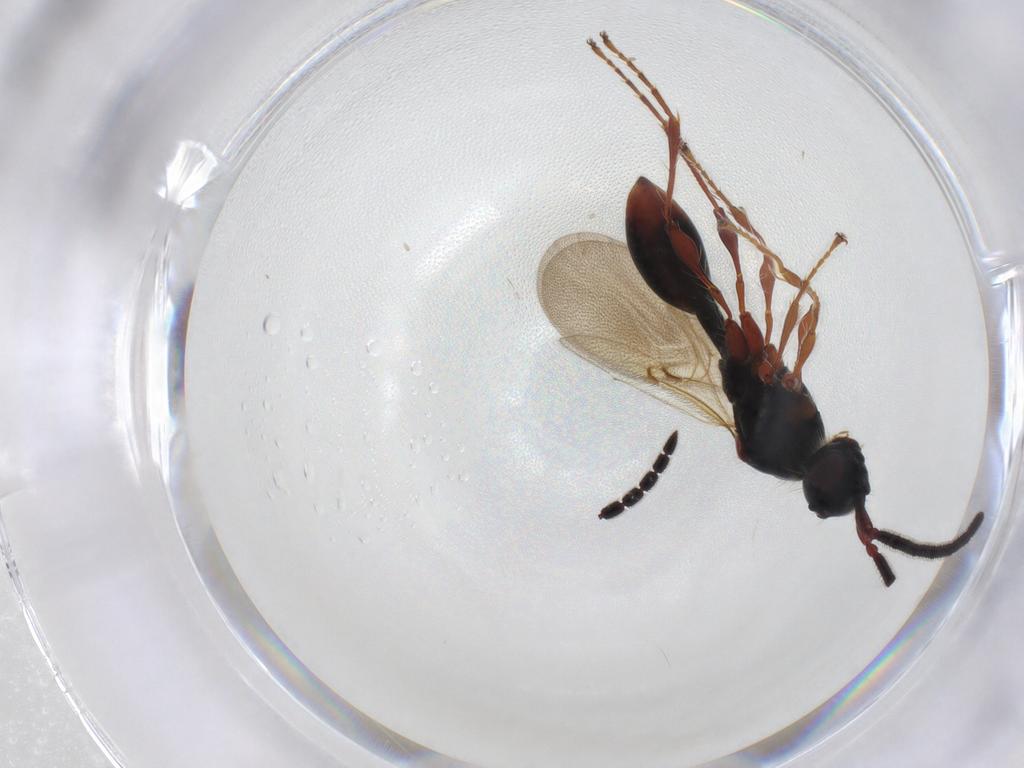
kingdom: Animalia
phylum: Arthropoda
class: Insecta
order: Hymenoptera
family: Diapriidae
